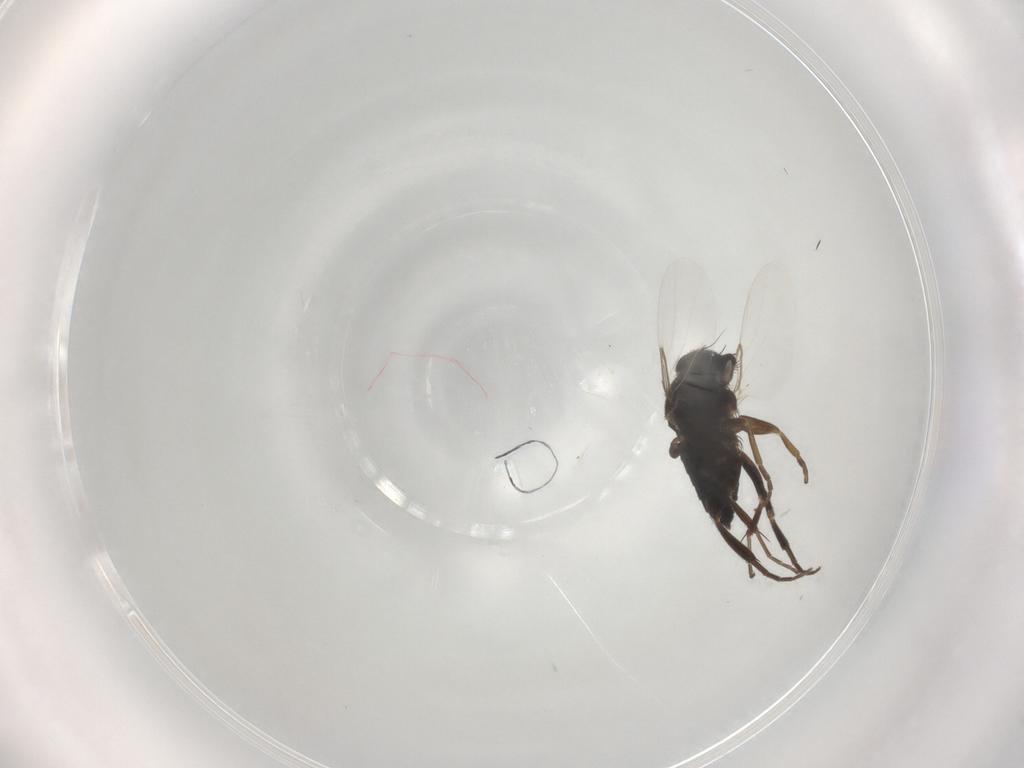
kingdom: Animalia
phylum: Arthropoda
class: Insecta
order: Diptera
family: Phoridae
